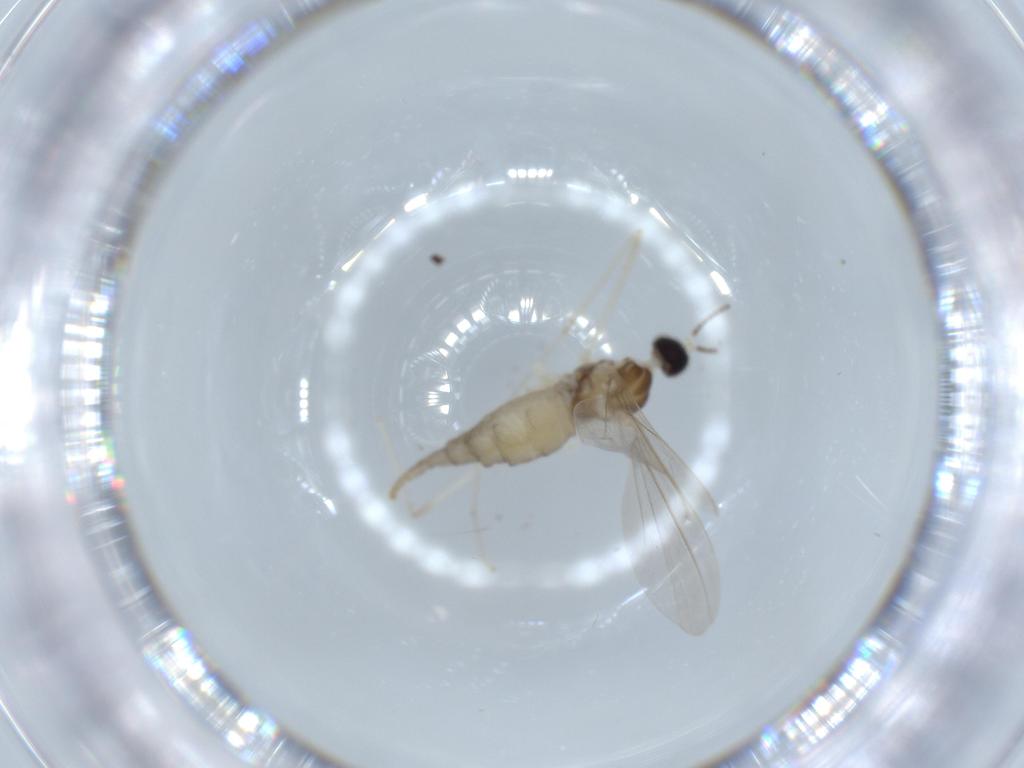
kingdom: Animalia
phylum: Arthropoda
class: Insecta
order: Diptera
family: Cecidomyiidae
